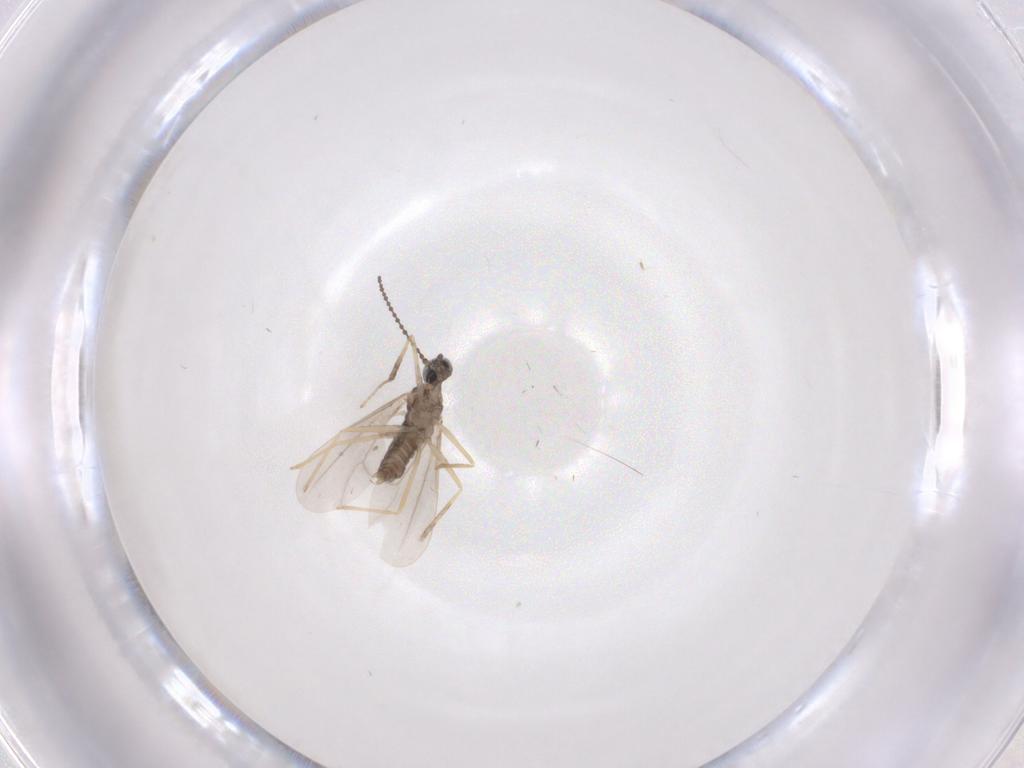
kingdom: Animalia
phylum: Arthropoda
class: Insecta
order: Diptera
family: Cecidomyiidae
